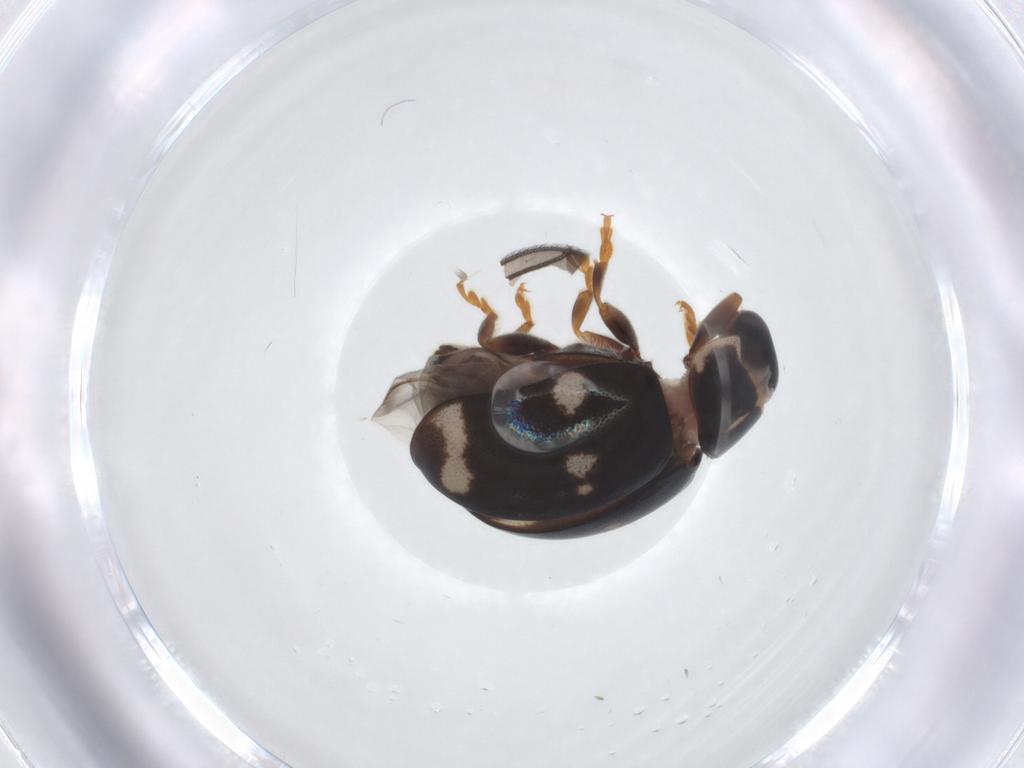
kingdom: Animalia
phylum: Arthropoda
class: Insecta
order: Coleoptera
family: Coccinellidae
